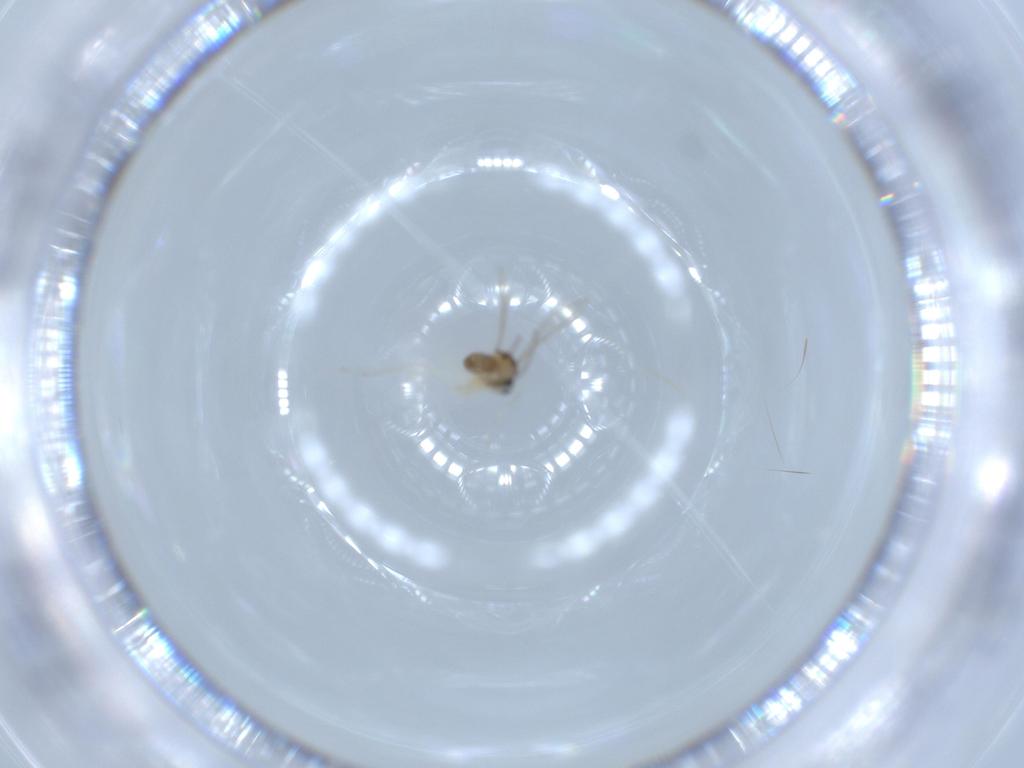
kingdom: Animalia
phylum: Arthropoda
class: Insecta
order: Diptera
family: Cecidomyiidae
